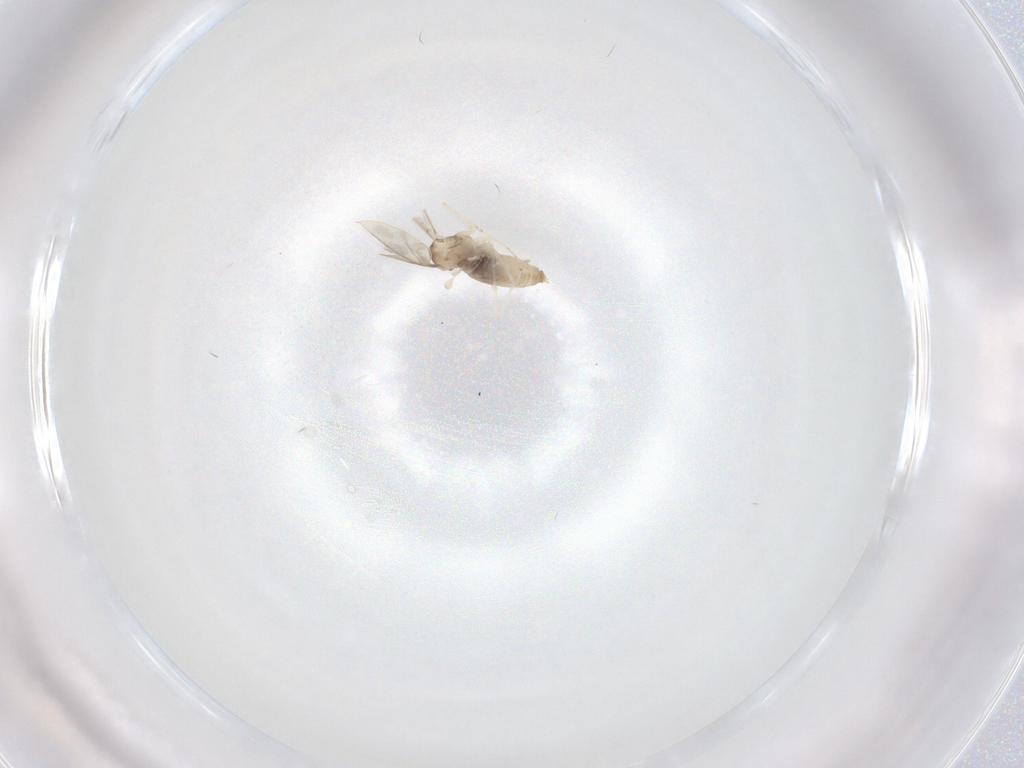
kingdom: Animalia
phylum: Arthropoda
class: Insecta
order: Diptera
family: Cecidomyiidae
